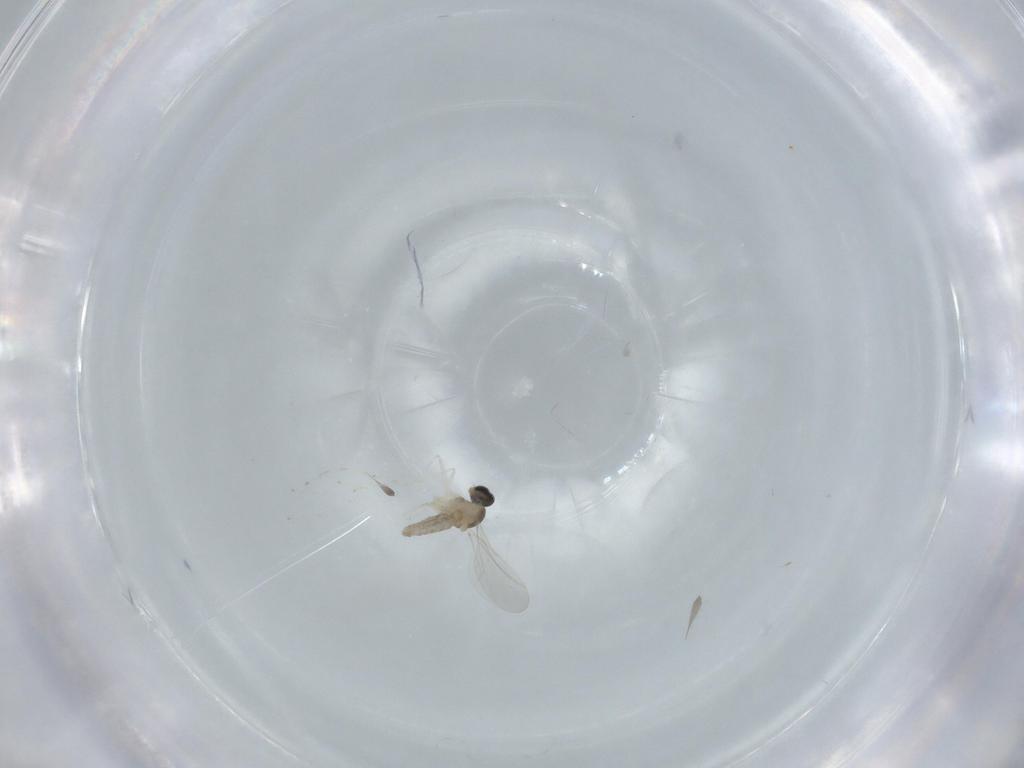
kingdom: Animalia
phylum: Arthropoda
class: Insecta
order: Diptera
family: Cecidomyiidae
